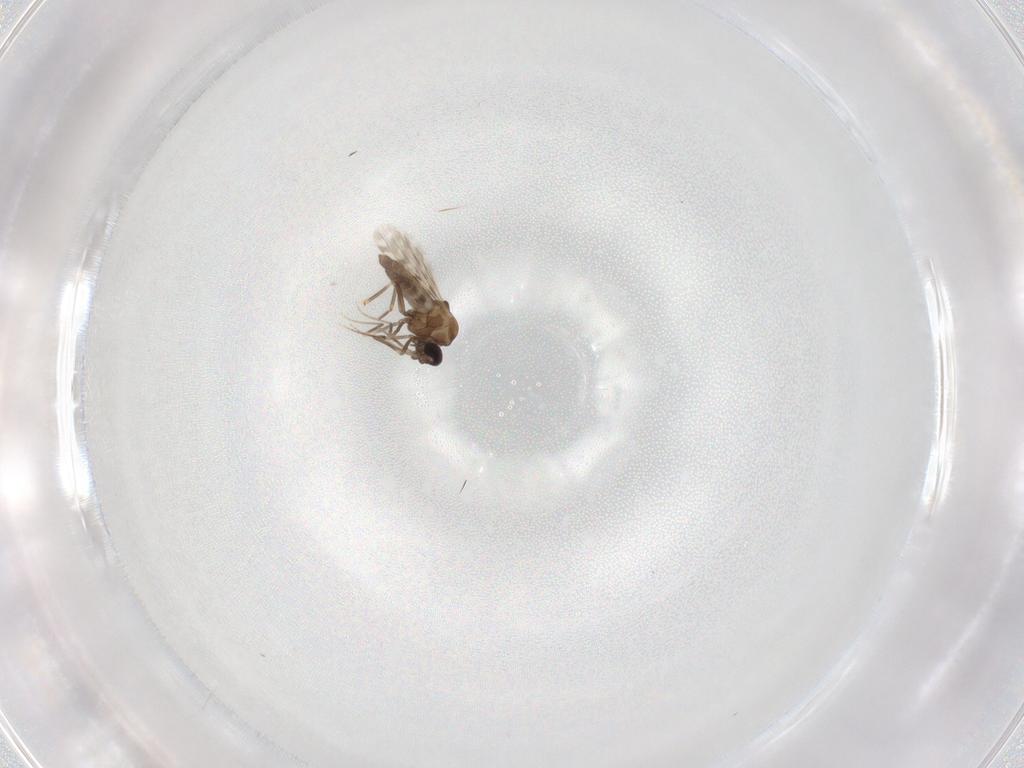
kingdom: Animalia
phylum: Arthropoda
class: Insecta
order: Diptera
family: Ceratopogonidae
